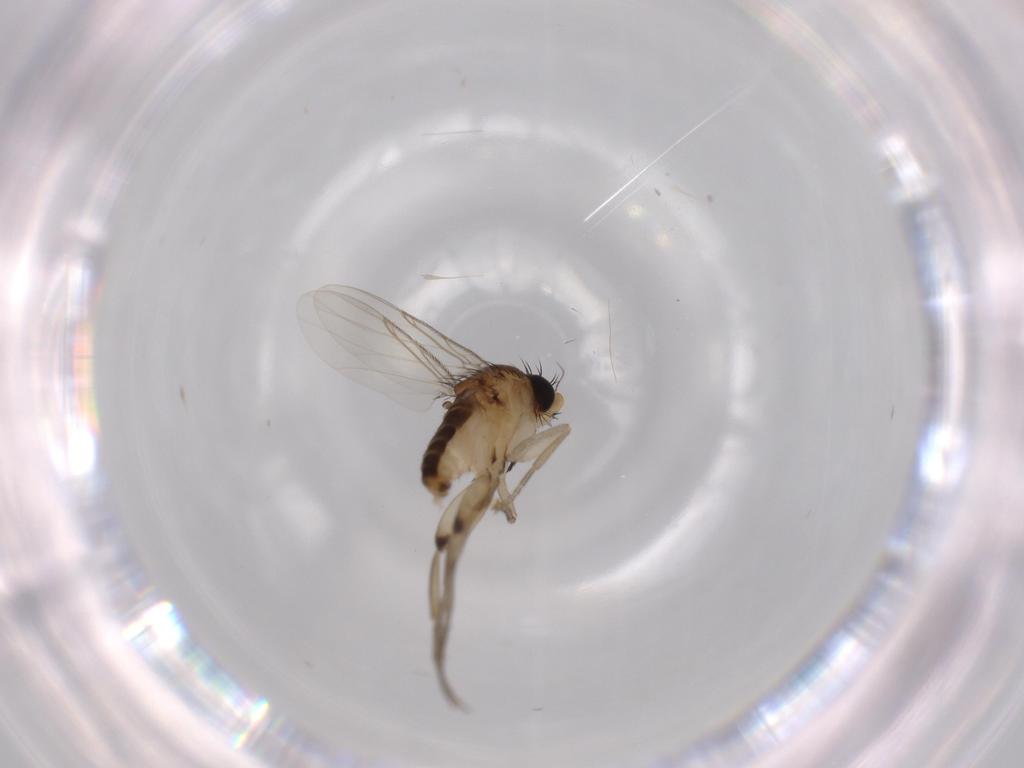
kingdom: Animalia
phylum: Arthropoda
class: Insecta
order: Diptera
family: Phoridae
